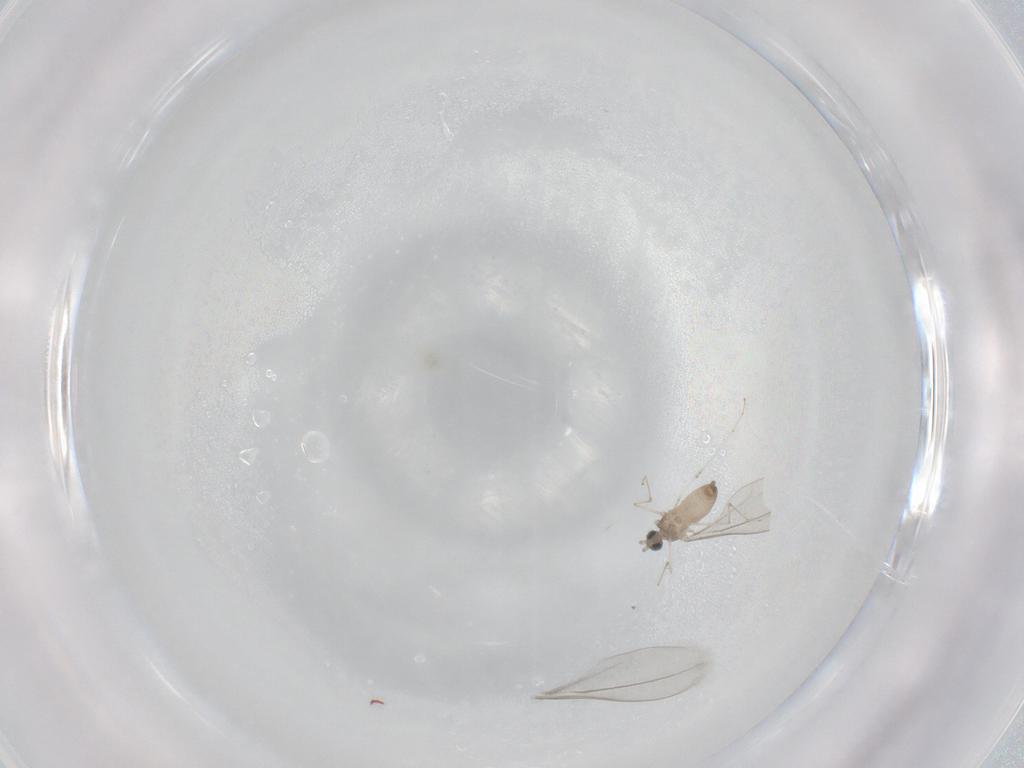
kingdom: Animalia
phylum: Arthropoda
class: Insecta
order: Diptera
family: Cecidomyiidae
